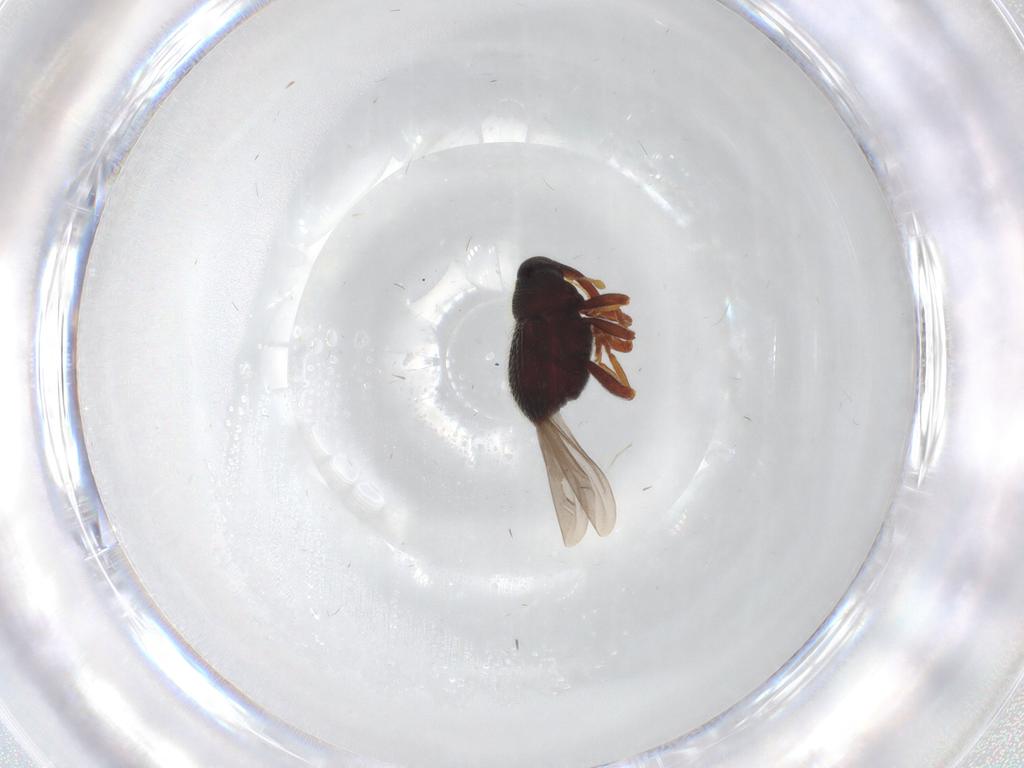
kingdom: Animalia
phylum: Arthropoda
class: Insecta
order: Coleoptera
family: Curculionidae
